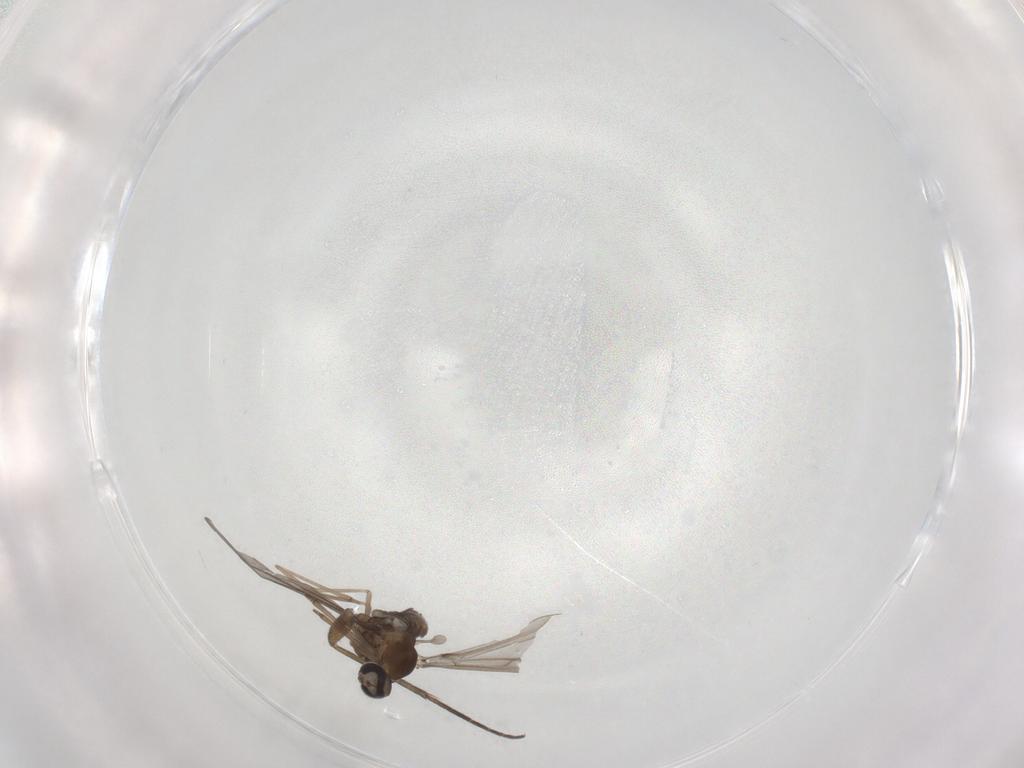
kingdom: Animalia
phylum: Arthropoda
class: Insecta
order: Diptera
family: Sciaridae
